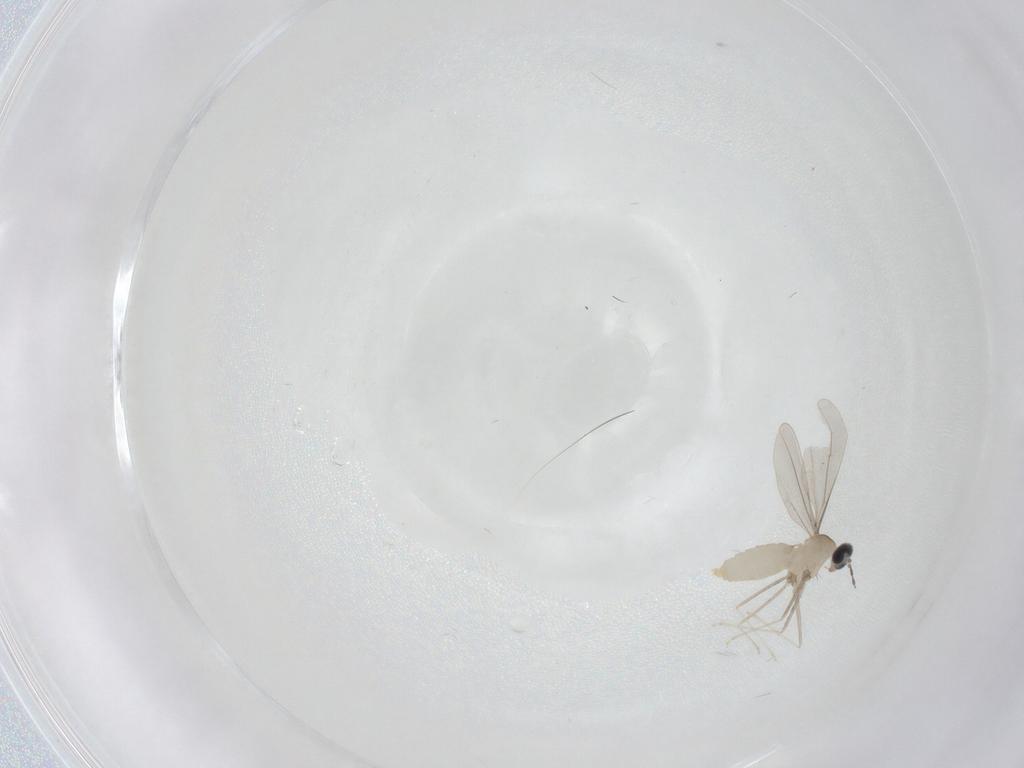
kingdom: Animalia
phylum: Arthropoda
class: Insecta
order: Diptera
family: Cecidomyiidae
